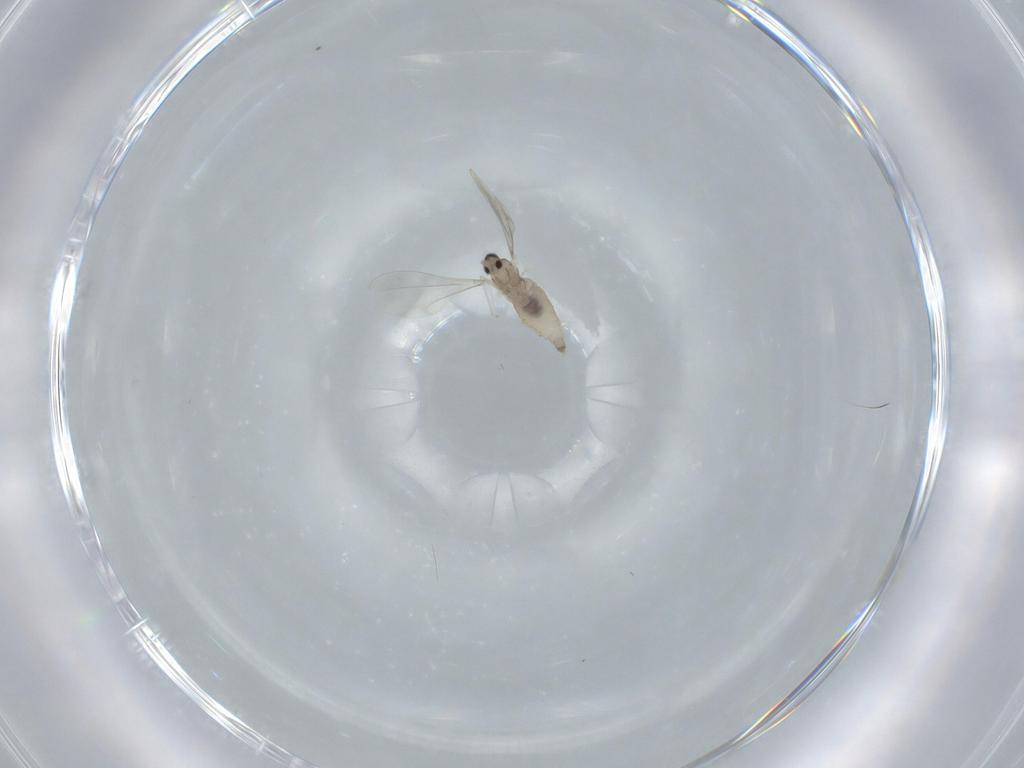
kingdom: Animalia
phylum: Arthropoda
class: Insecta
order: Diptera
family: Cecidomyiidae
